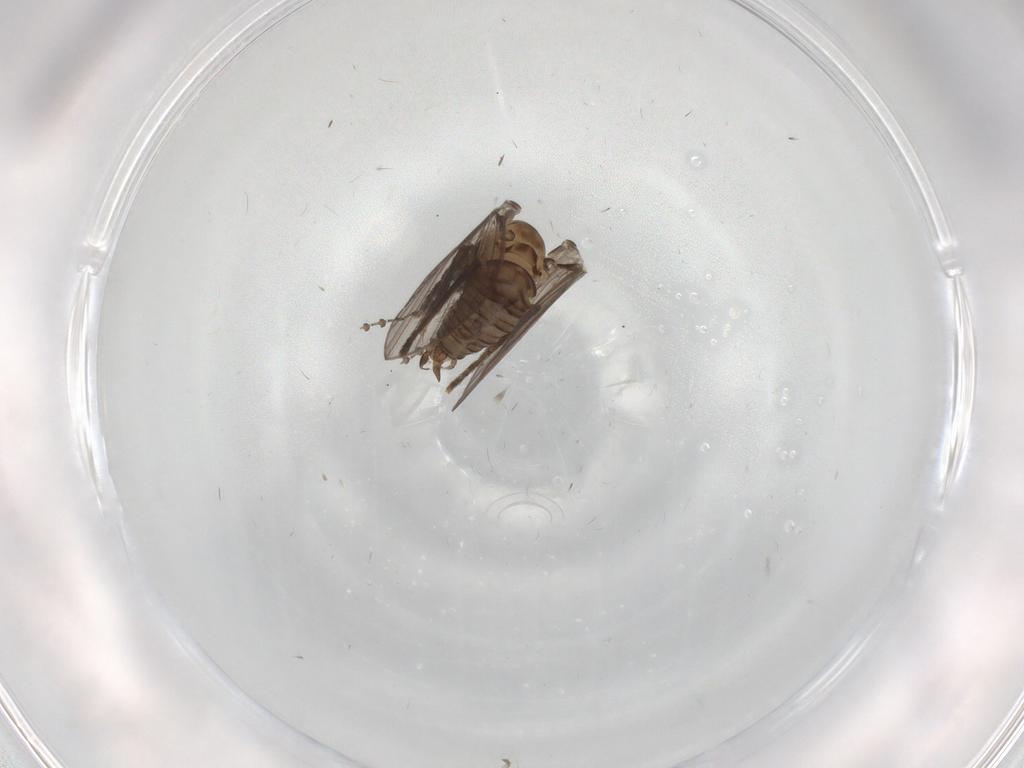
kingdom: Animalia
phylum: Arthropoda
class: Insecta
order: Diptera
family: Psychodidae
